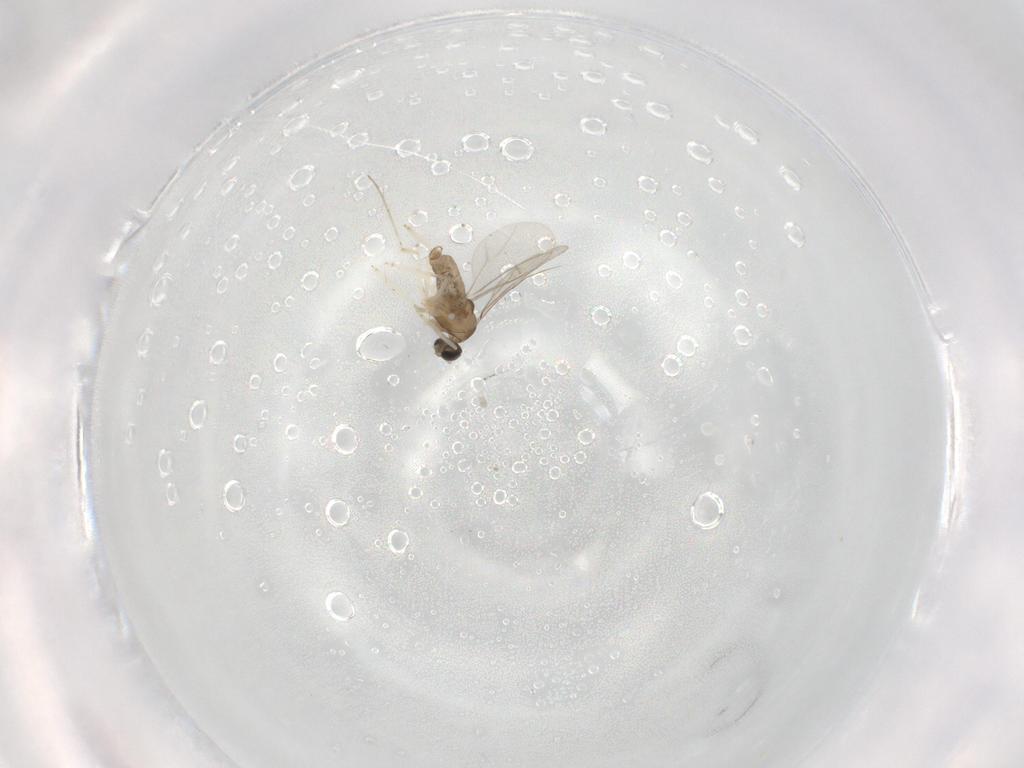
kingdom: Animalia
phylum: Arthropoda
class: Insecta
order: Diptera
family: Cecidomyiidae
